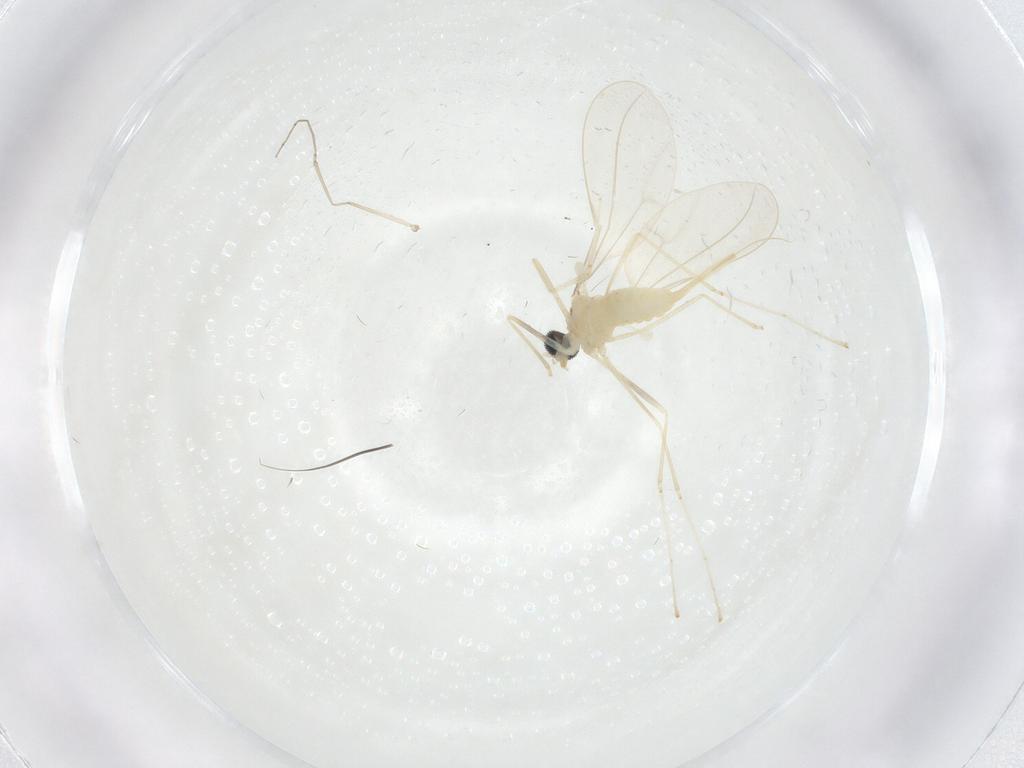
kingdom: Animalia
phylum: Arthropoda
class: Insecta
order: Diptera
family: Cecidomyiidae
